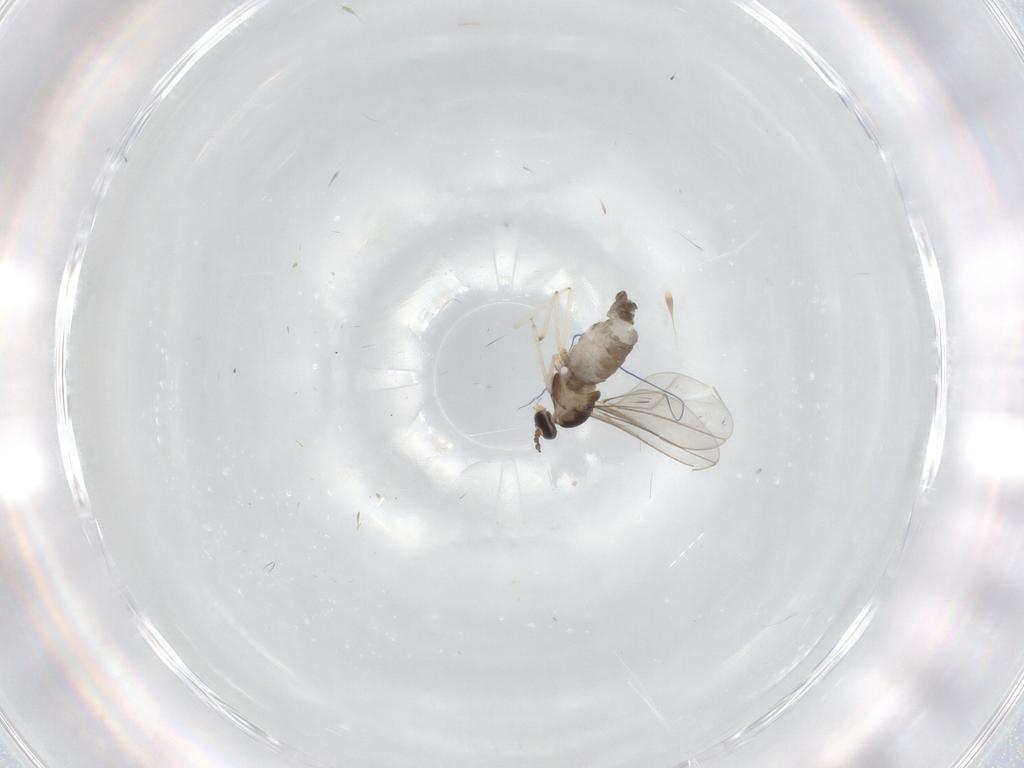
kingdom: Animalia
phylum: Arthropoda
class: Insecta
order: Diptera
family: Cecidomyiidae
